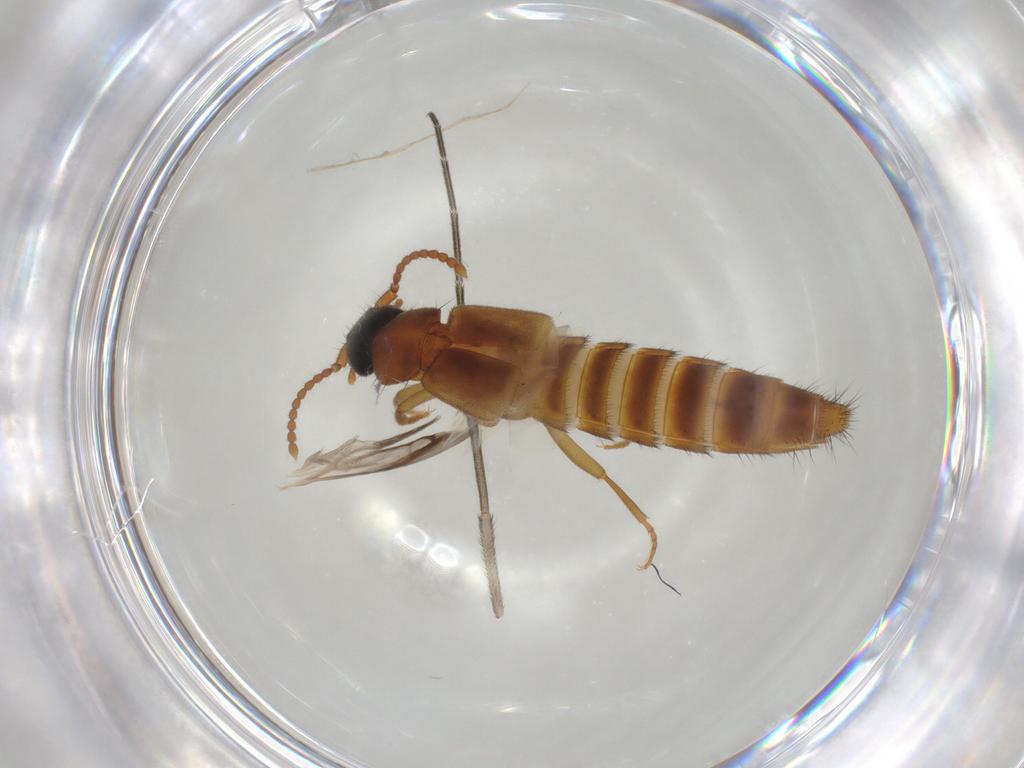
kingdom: Animalia
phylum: Arthropoda
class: Insecta
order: Coleoptera
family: Staphylinidae
